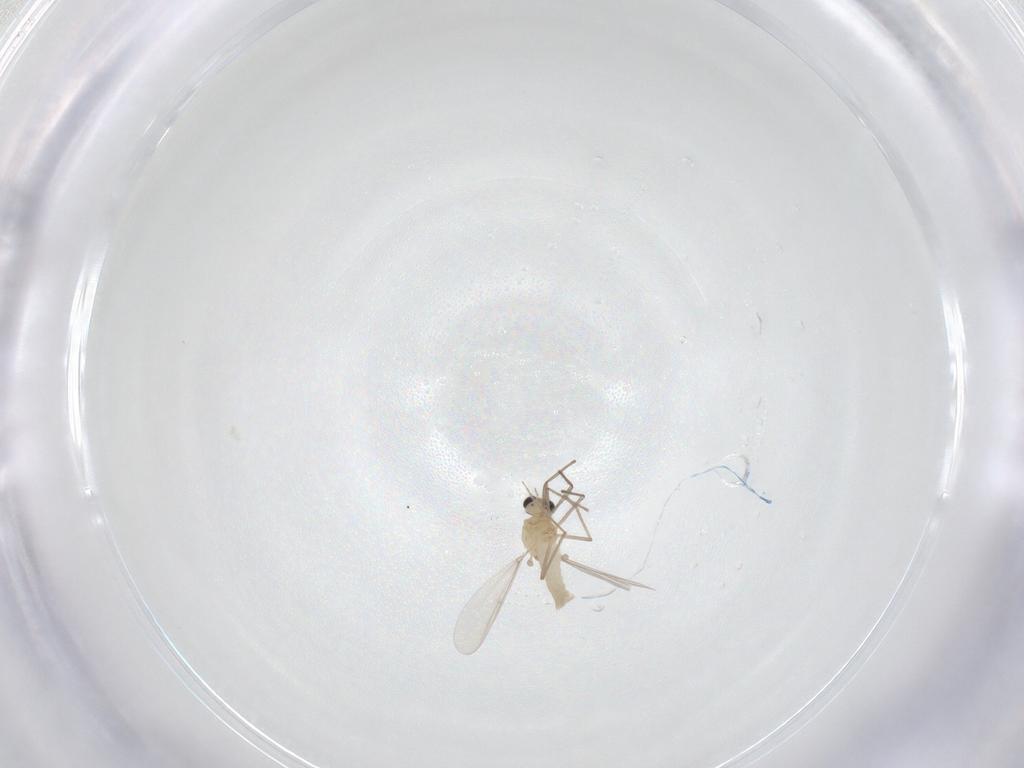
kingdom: Animalia
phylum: Arthropoda
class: Insecta
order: Diptera
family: Chironomidae
